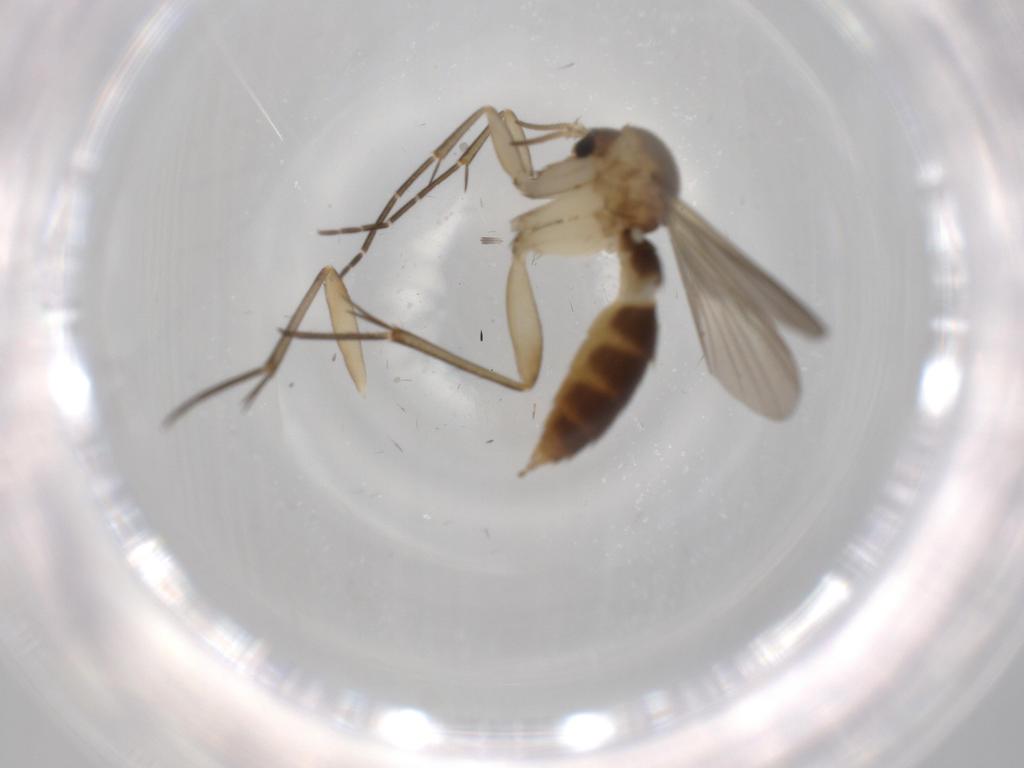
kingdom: Animalia
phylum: Arthropoda
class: Insecta
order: Diptera
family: Mycetophilidae
